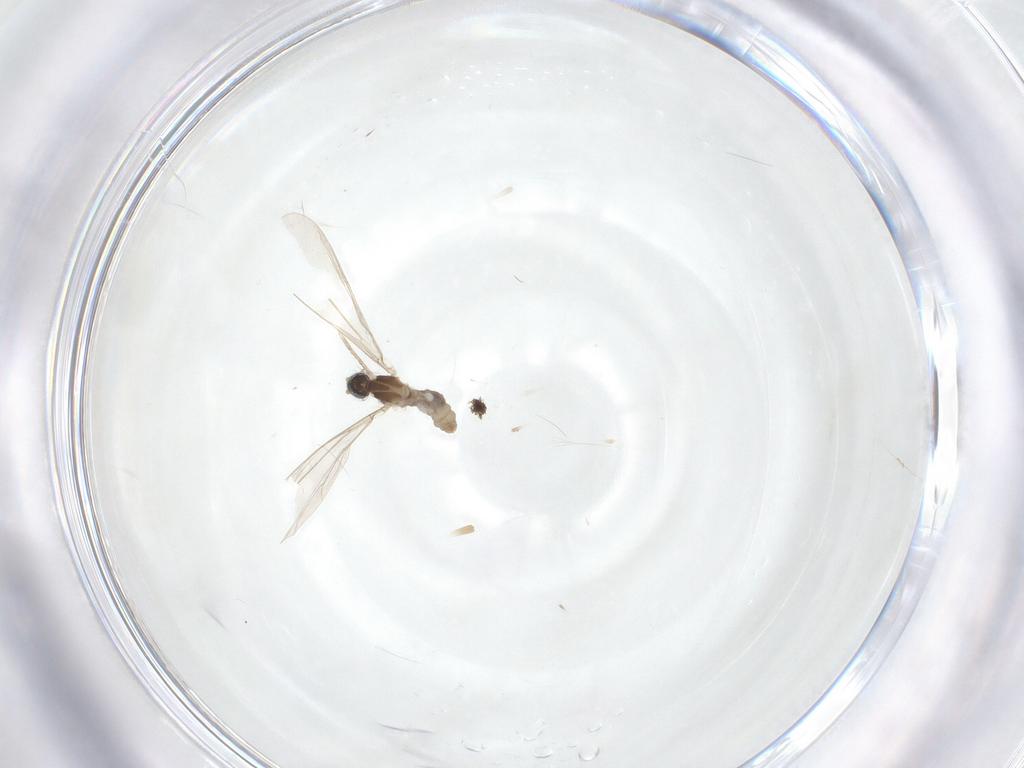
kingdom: Animalia
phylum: Arthropoda
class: Insecta
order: Diptera
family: Cecidomyiidae
